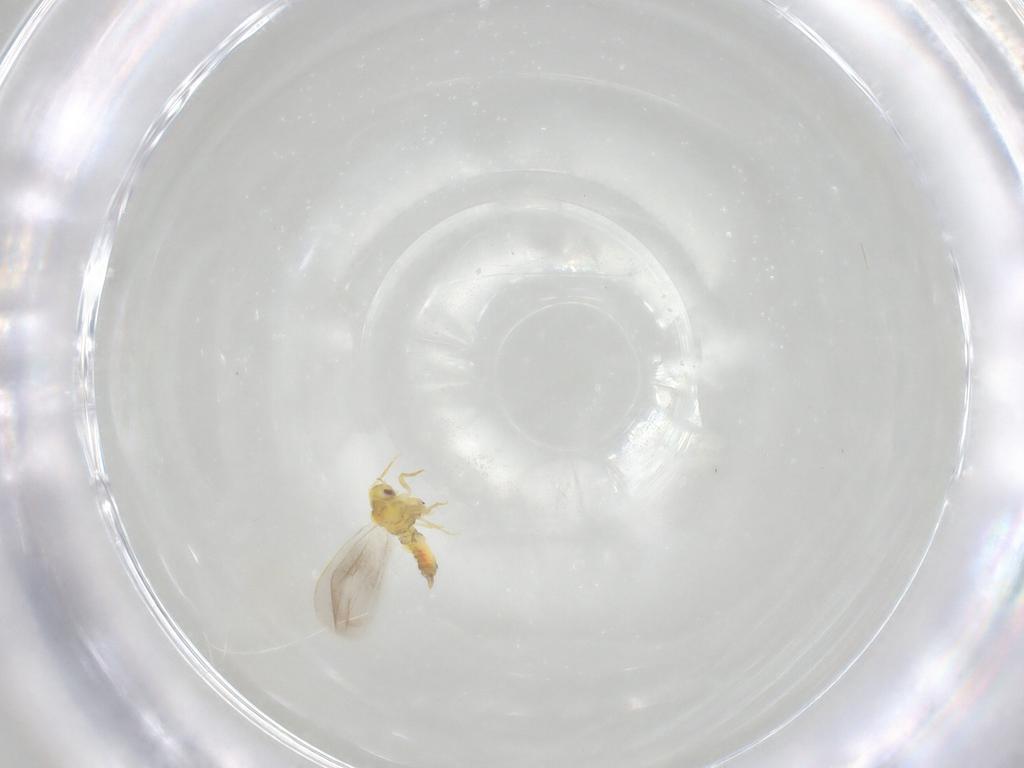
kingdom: Animalia
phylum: Arthropoda
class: Insecta
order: Hemiptera
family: Aleyrodidae
